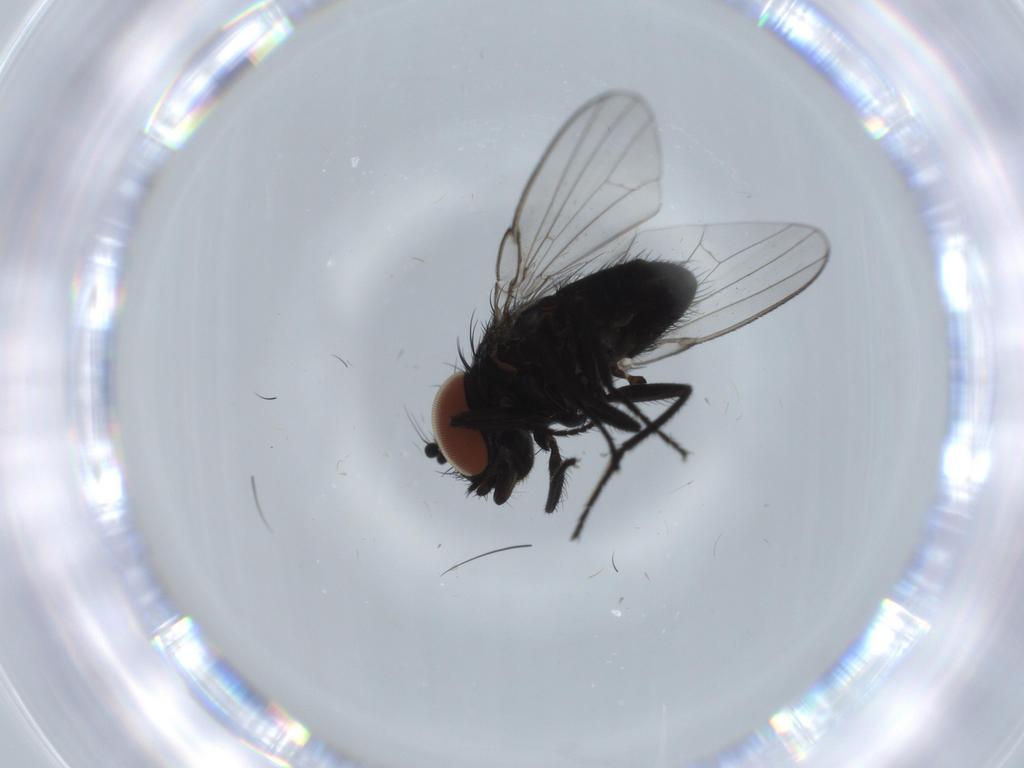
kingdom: Animalia
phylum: Arthropoda
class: Insecta
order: Diptera
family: Milichiidae
